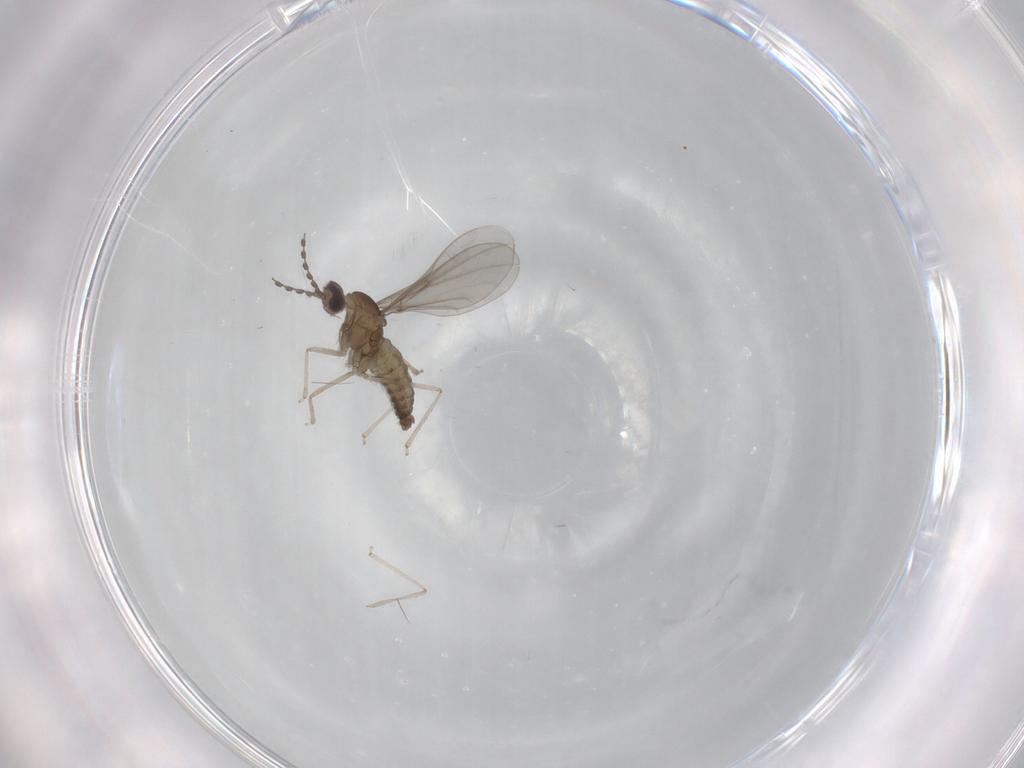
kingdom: Animalia
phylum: Arthropoda
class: Insecta
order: Diptera
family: Cecidomyiidae
